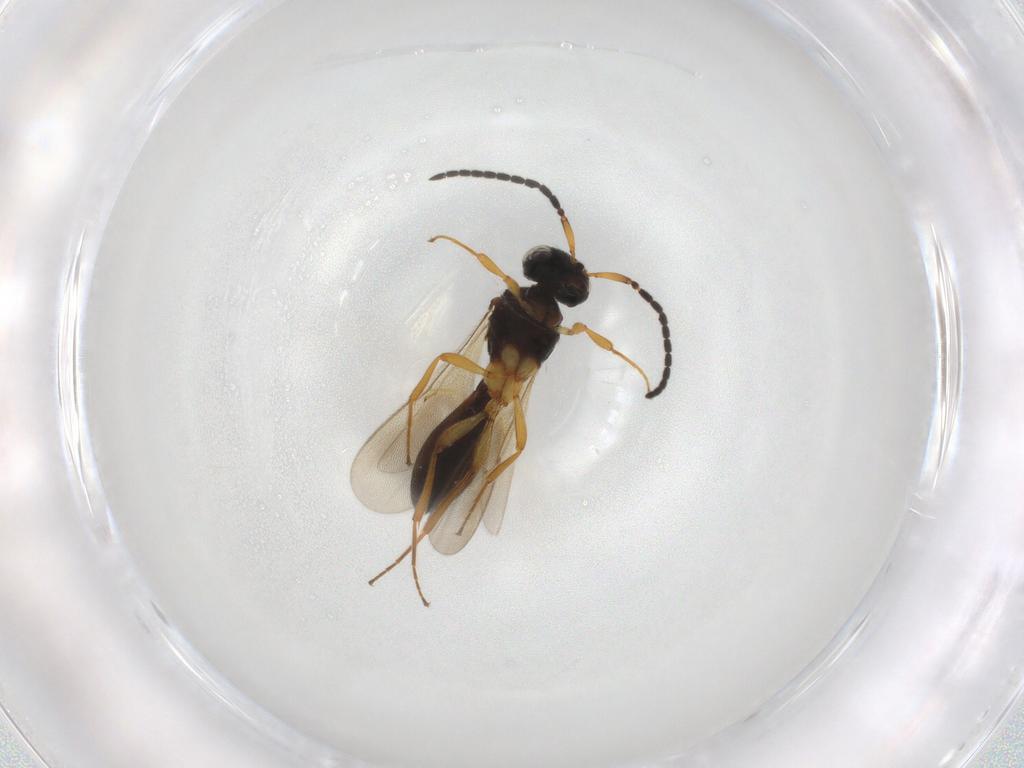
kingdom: Animalia
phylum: Arthropoda
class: Insecta
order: Hymenoptera
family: Scelionidae
